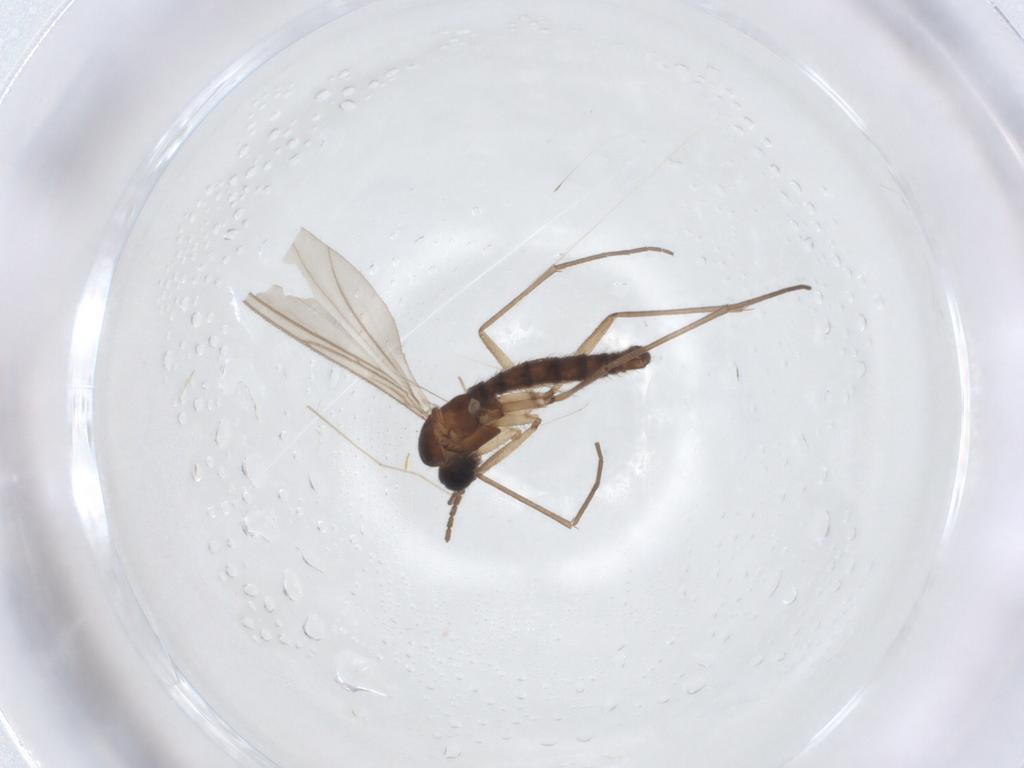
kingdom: Animalia
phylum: Arthropoda
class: Insecta
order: Diptera
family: Sciaridae
